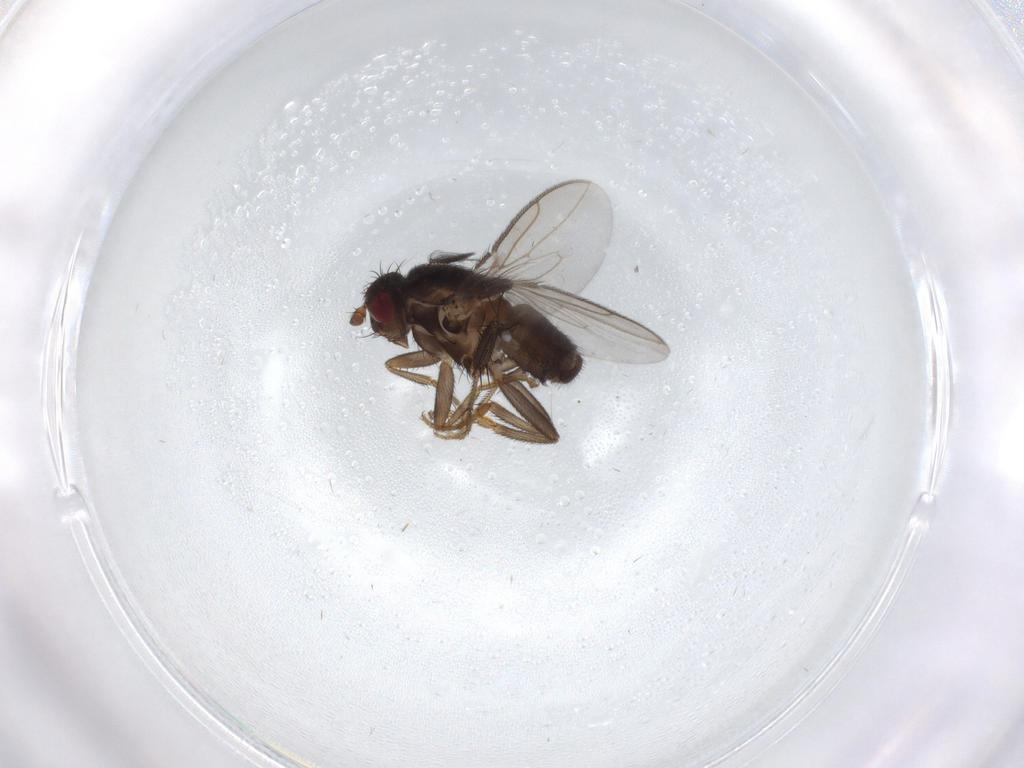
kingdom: Animalia
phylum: Arthropoda
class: Insecta
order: Diptera
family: Sphaeroceridae
